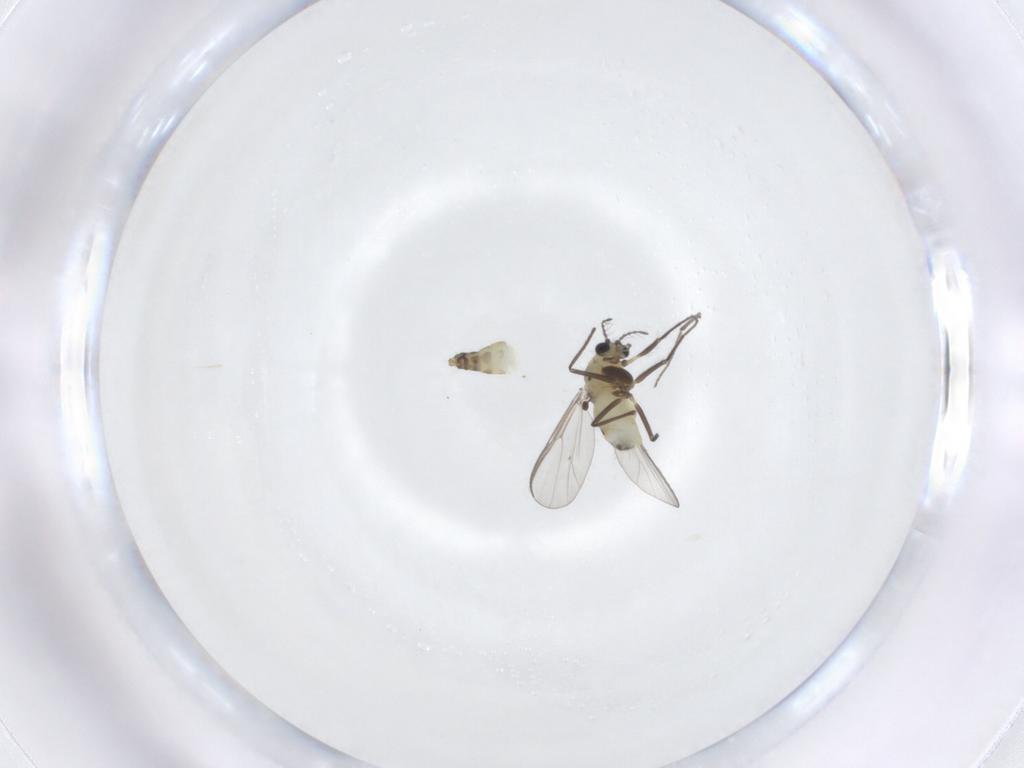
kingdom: Animalia
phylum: Arthropoda
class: Insecta
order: Diptera
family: Chironomidae
